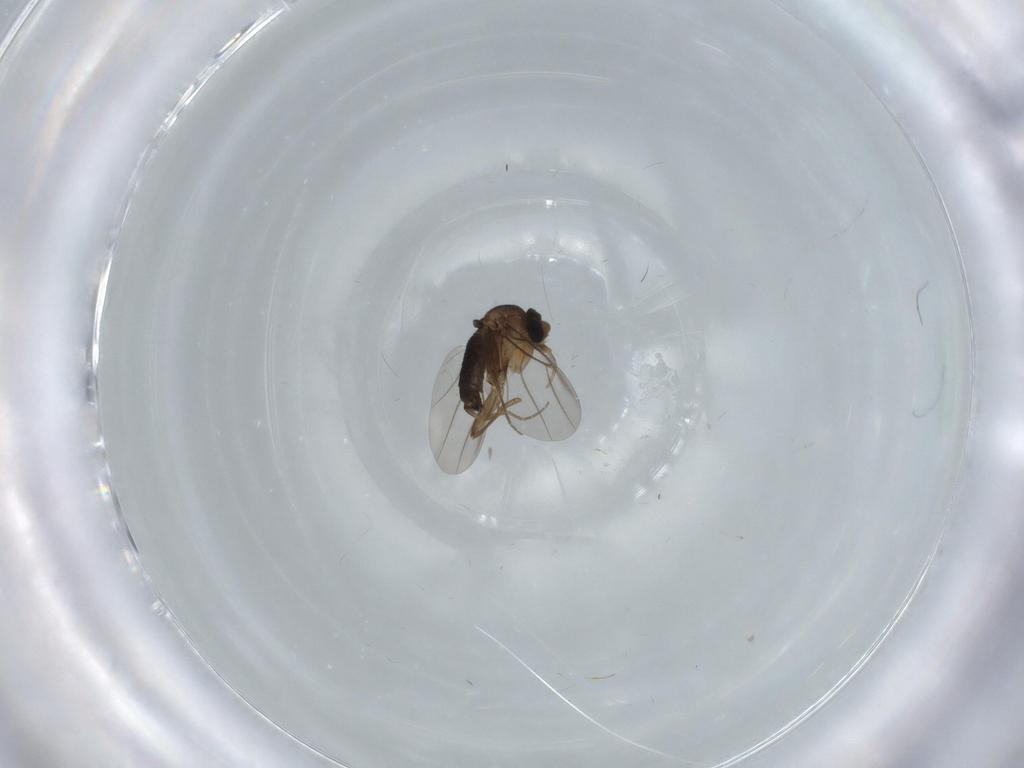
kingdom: Animalia
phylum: Arthropoda
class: Insecta
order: Diptera
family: Phoridae
